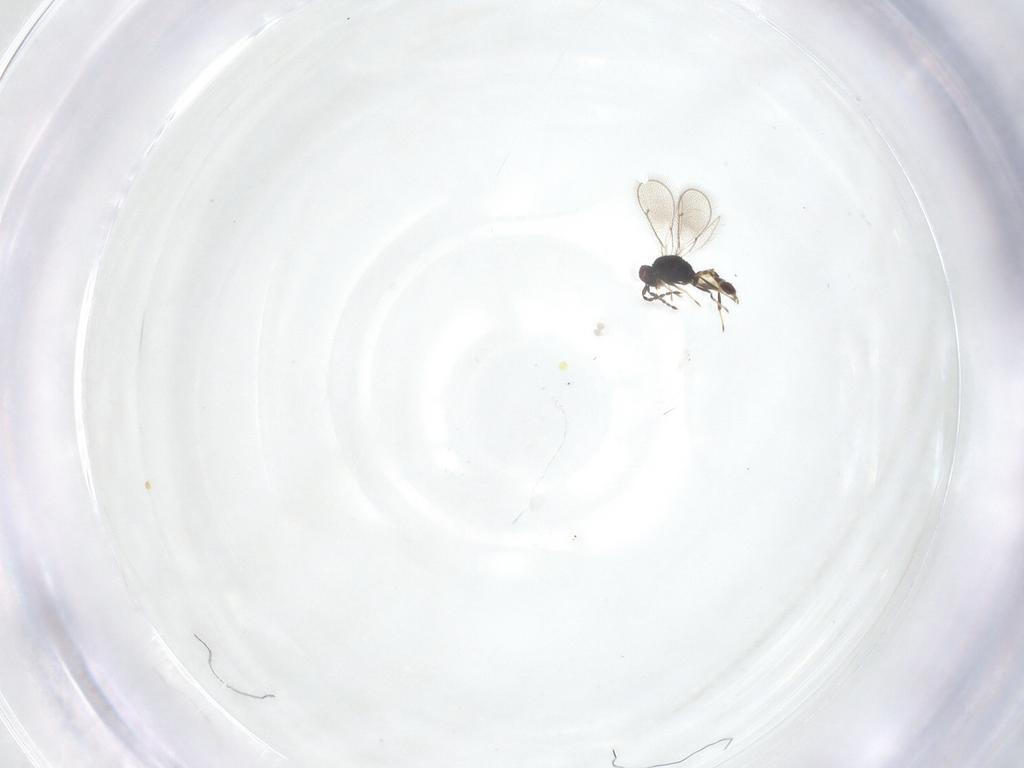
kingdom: Animalia
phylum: Arthropoda
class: Insecta
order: Hymenoptera
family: Eulophidae
